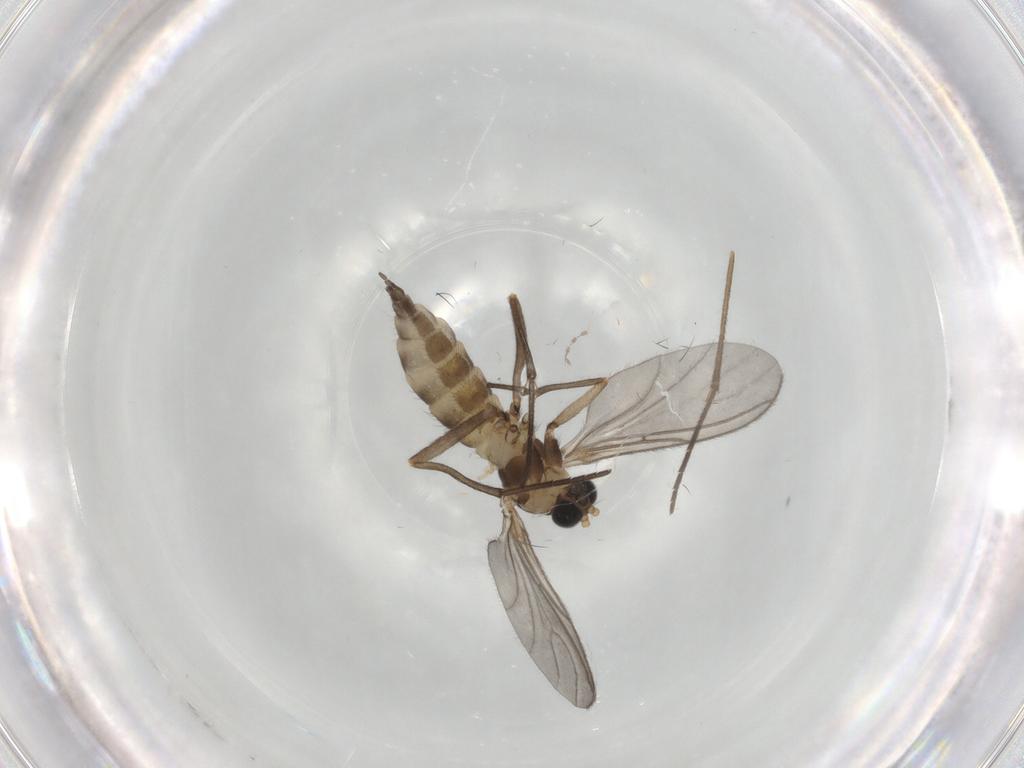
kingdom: Animalia
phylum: Arthropoda
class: Insecta
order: Diptera
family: Sciaridae
